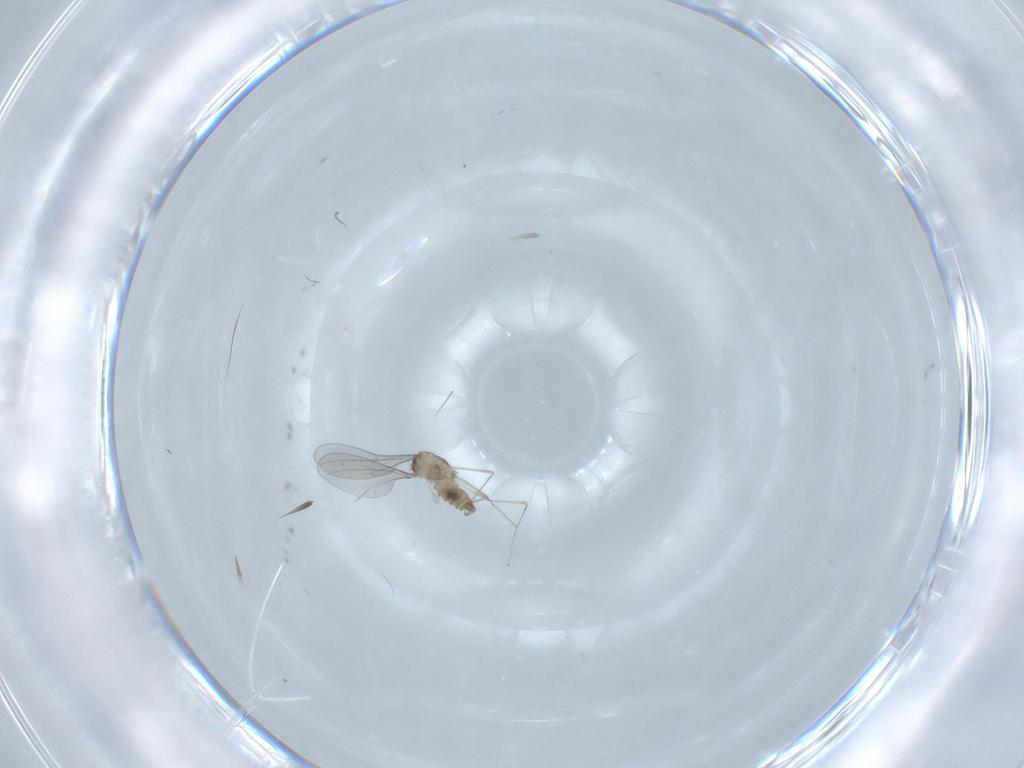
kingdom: Animalia
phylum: Arthropoda
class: Insecta
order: Diptera
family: Cecidomyiidae
